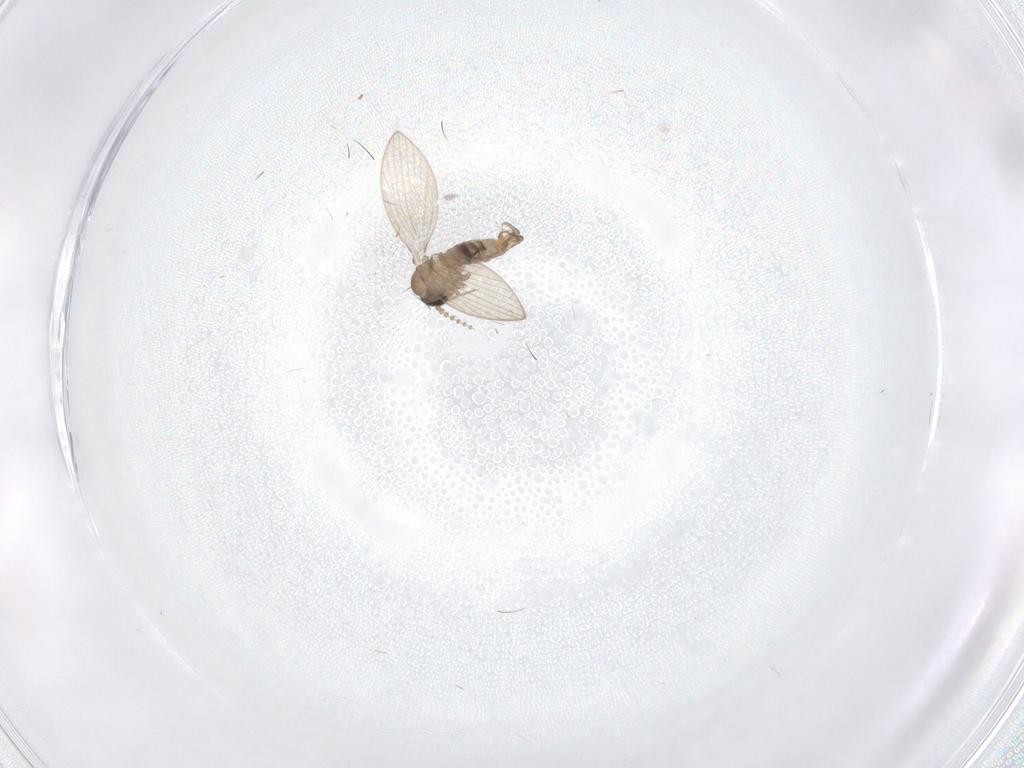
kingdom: Animalia
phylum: Arthropoda
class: Insecta
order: Diptera
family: Psychodidae
